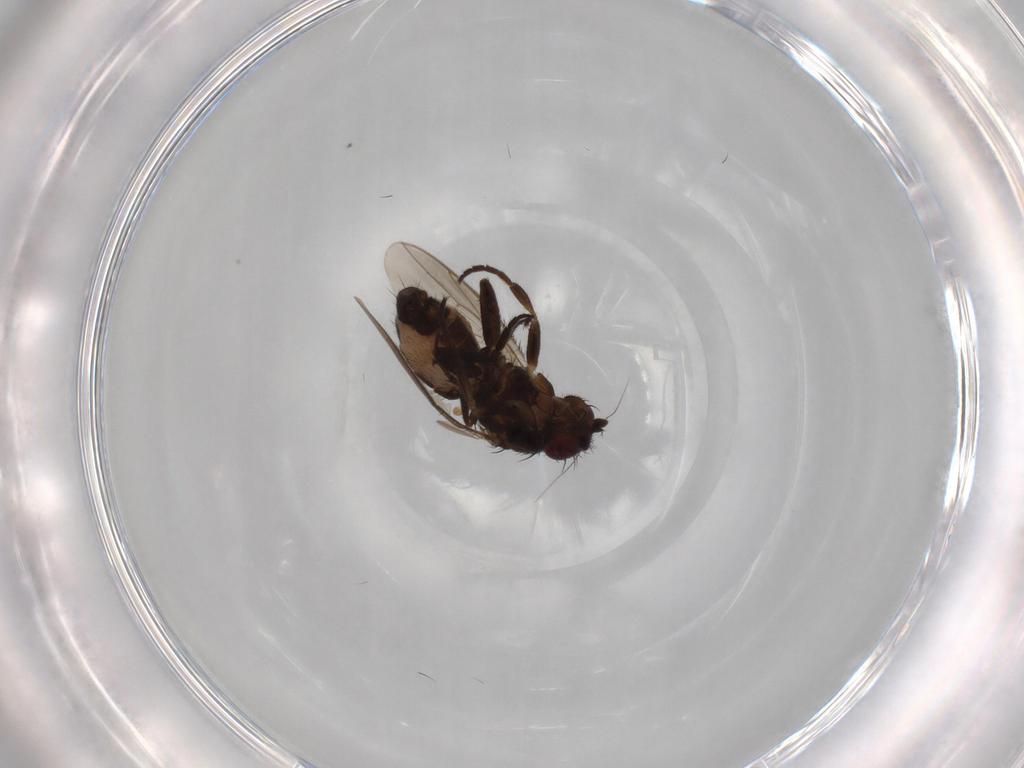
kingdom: Animalia
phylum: Arthropoda
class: Insecta
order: Diptera
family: Sphaeroceridae
